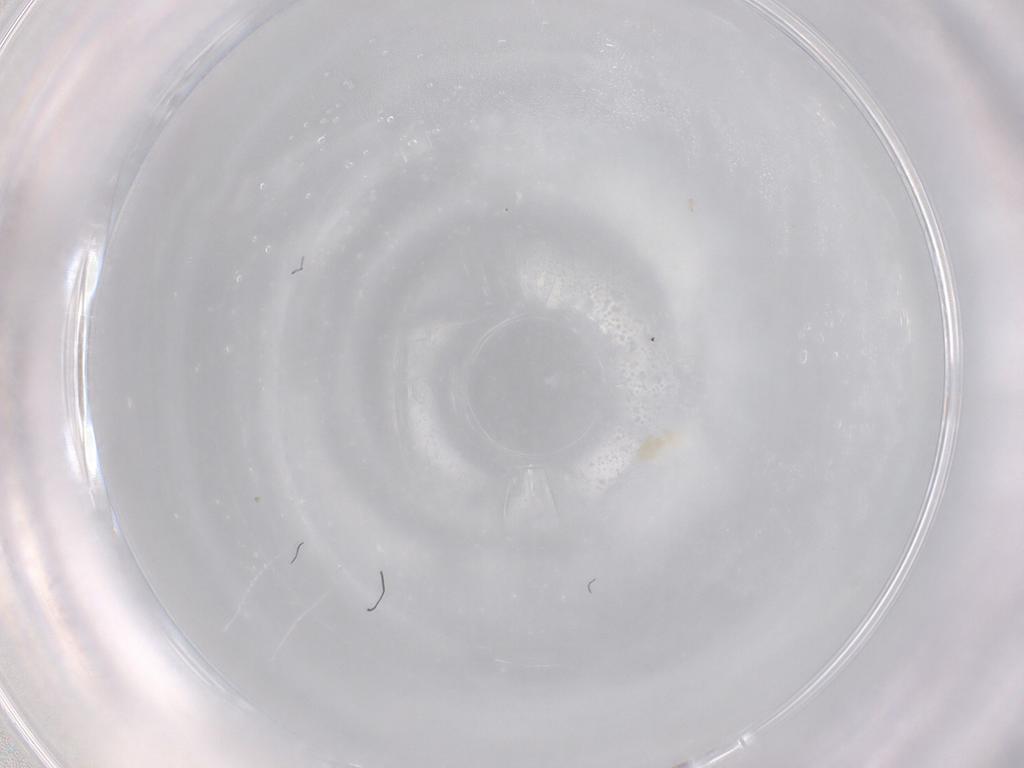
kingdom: Animalia
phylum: Arthropoda
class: Arachnida
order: Trombidiformes
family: Eupodidae
